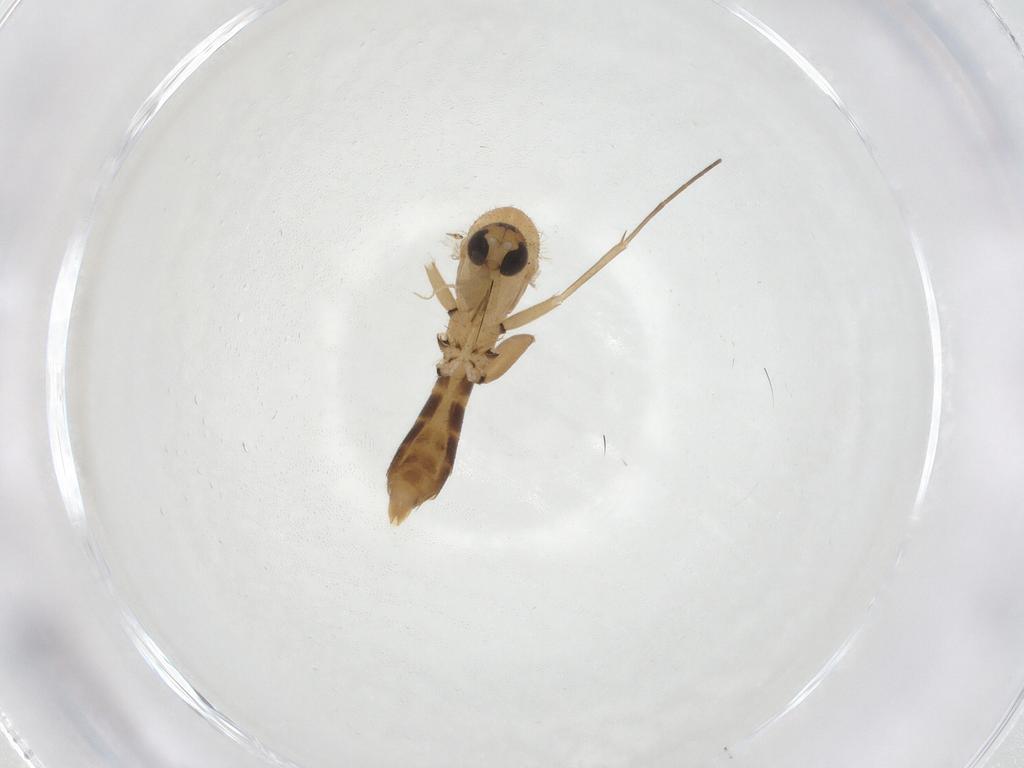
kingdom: Animalia
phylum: Arthropoda
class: Insecta
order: Diptera
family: Mycetophilidae
